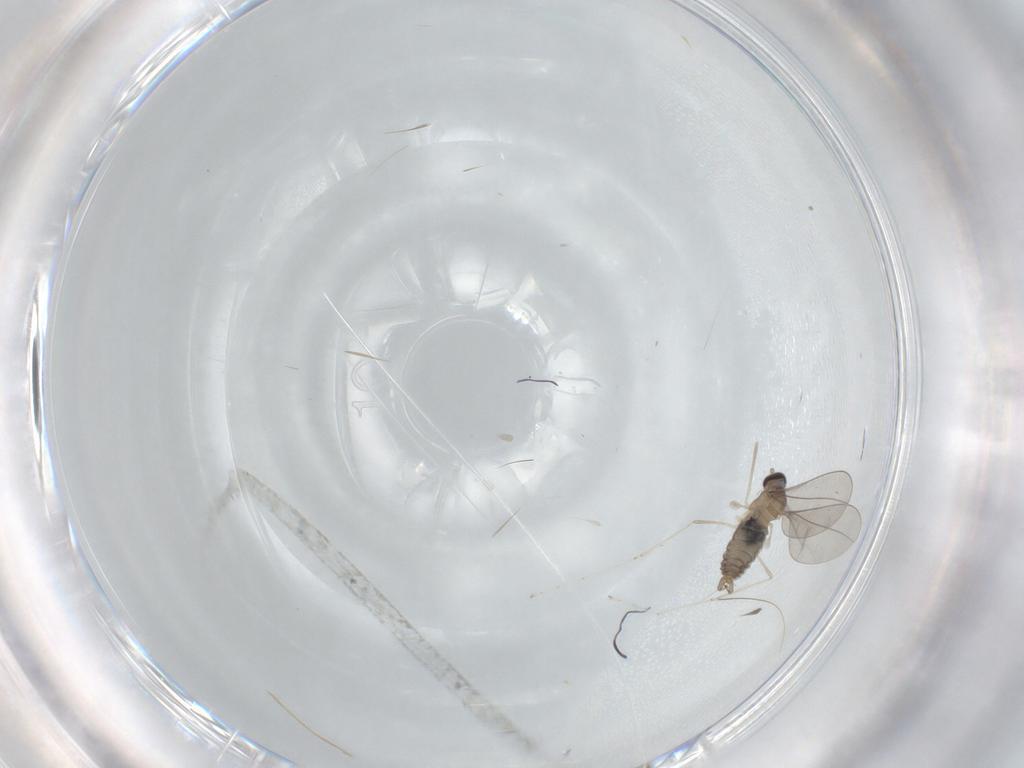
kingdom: Animalia
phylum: Arthropoda
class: Insecta
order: Diptera
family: Cecidomyiidae
